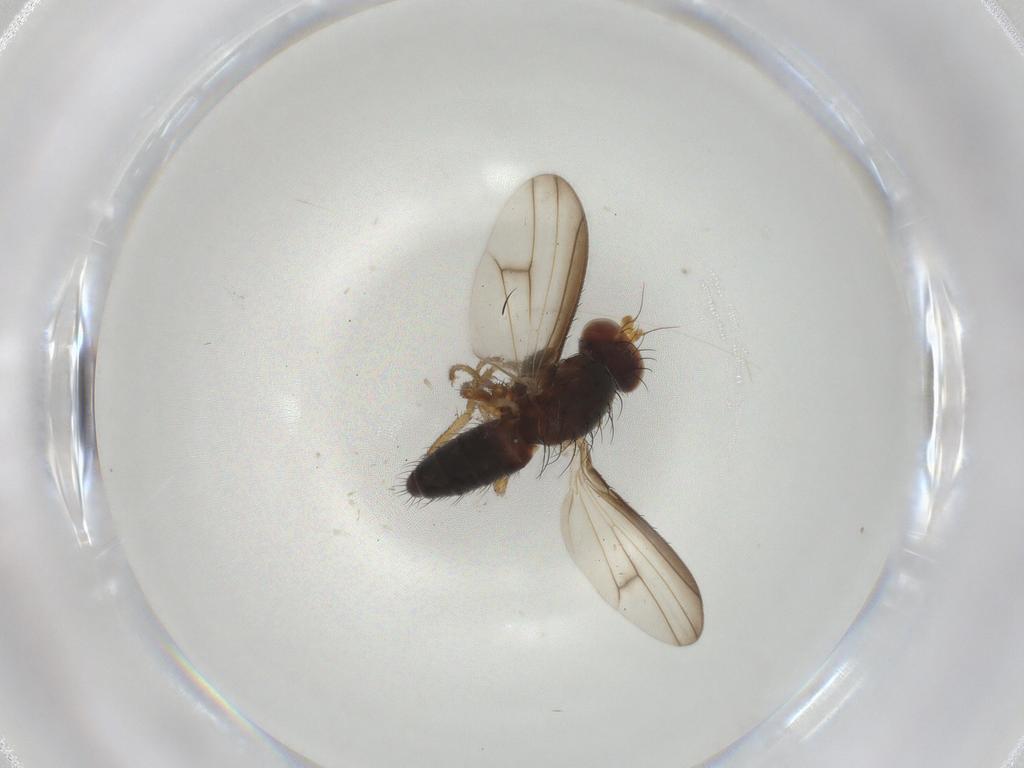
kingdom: Animalia
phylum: Arthropoda
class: Insecta
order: Diptera
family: Heleomyzidae
